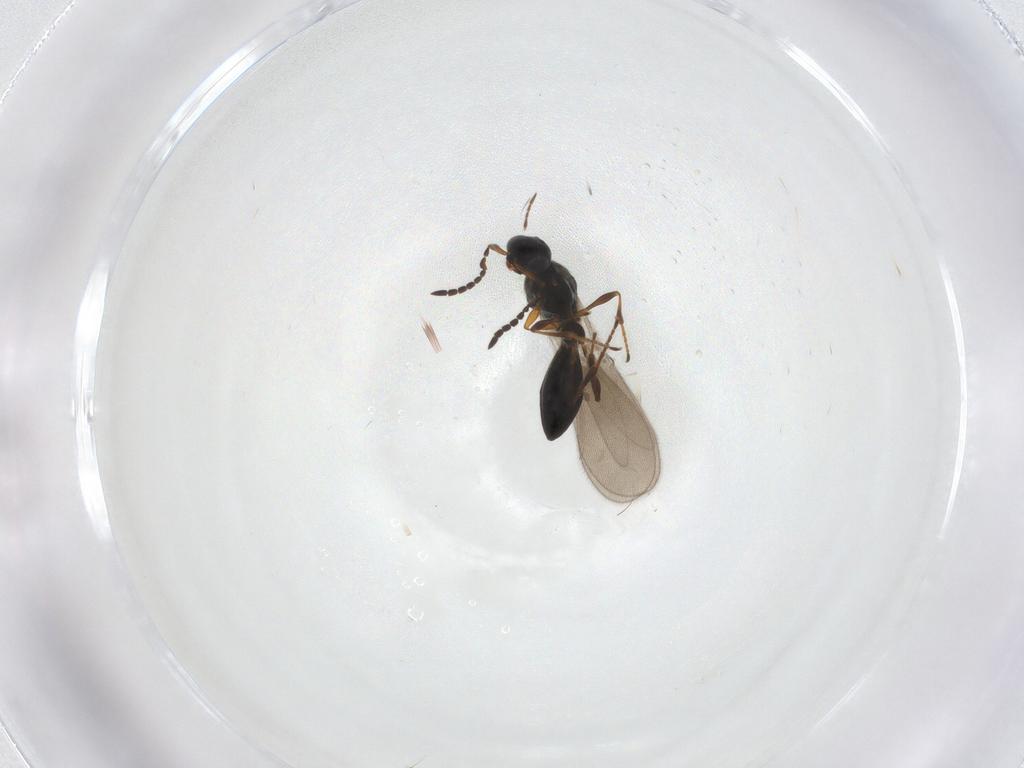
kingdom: Animalia
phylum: Arthropoda
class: Insecta
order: Hymenoptera
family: Platygastridae
